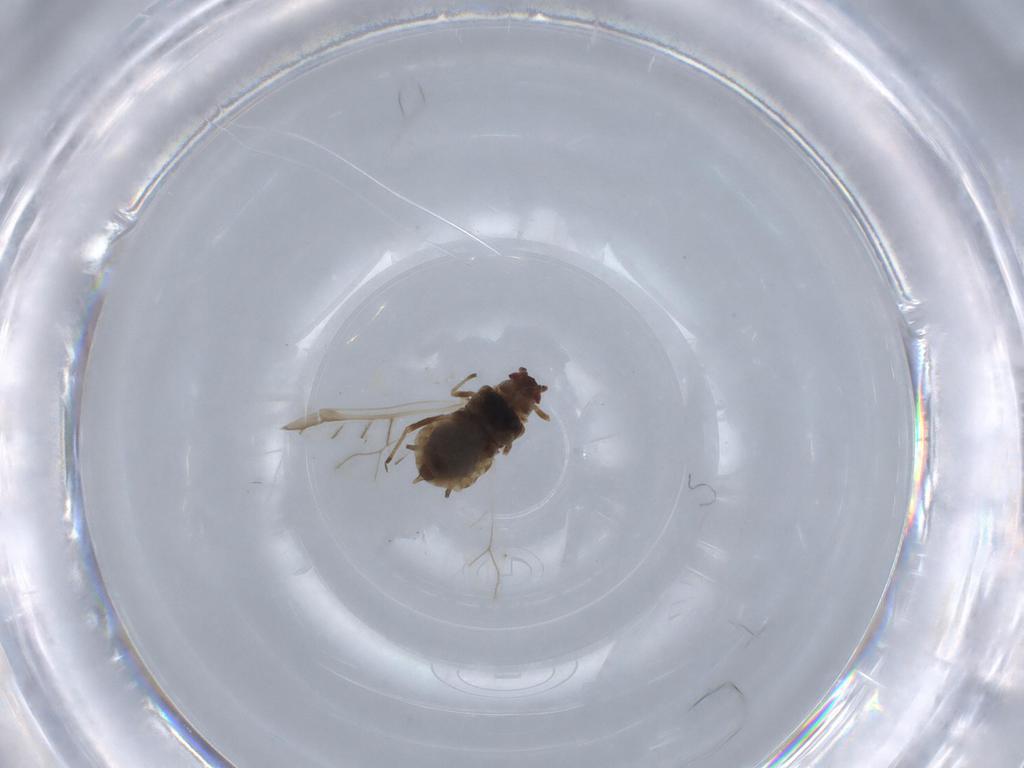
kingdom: Animalia
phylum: Arthropoda
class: Insecta
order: Hemiptera
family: Aphididae
